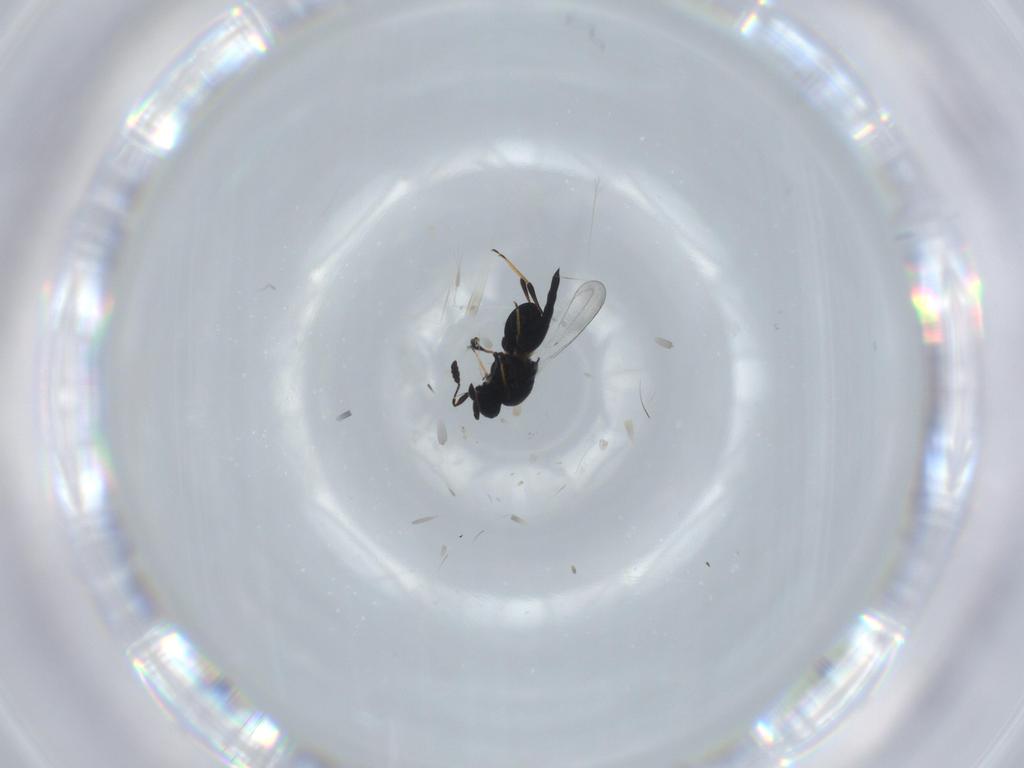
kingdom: Animalia
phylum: Arthropoda
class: Insecta
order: Hymenoptera
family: Platygastridae
